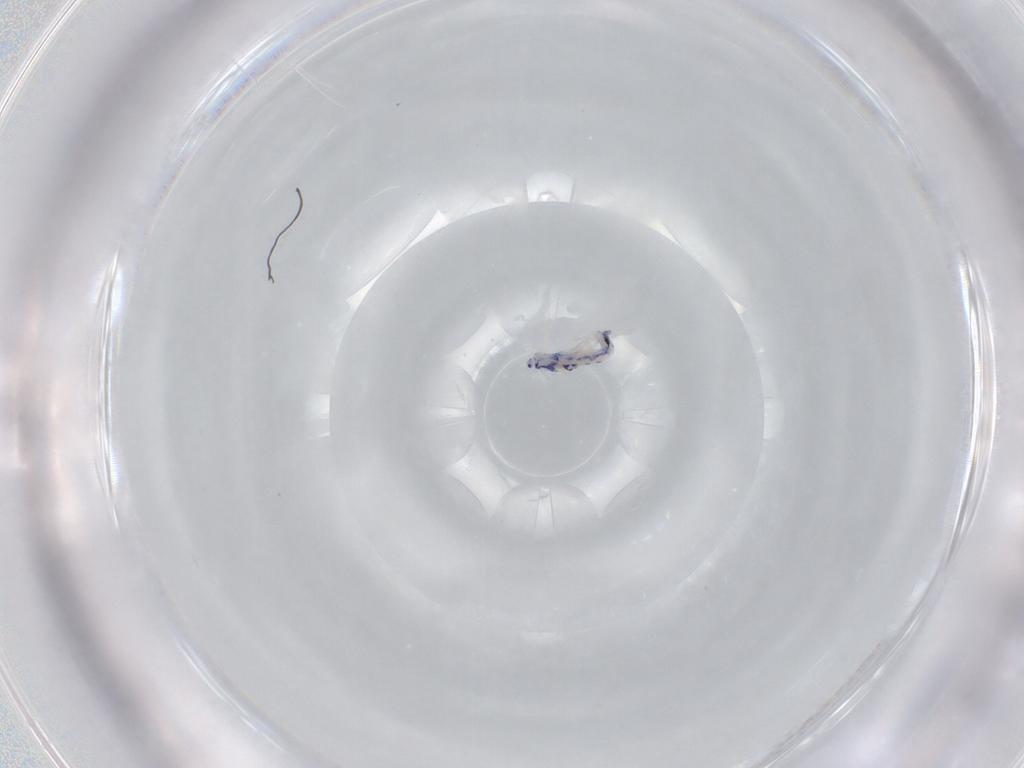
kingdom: Animalia
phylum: Arthropoda
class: Collembola
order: Entomobryomorpha
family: Entomobryidae
